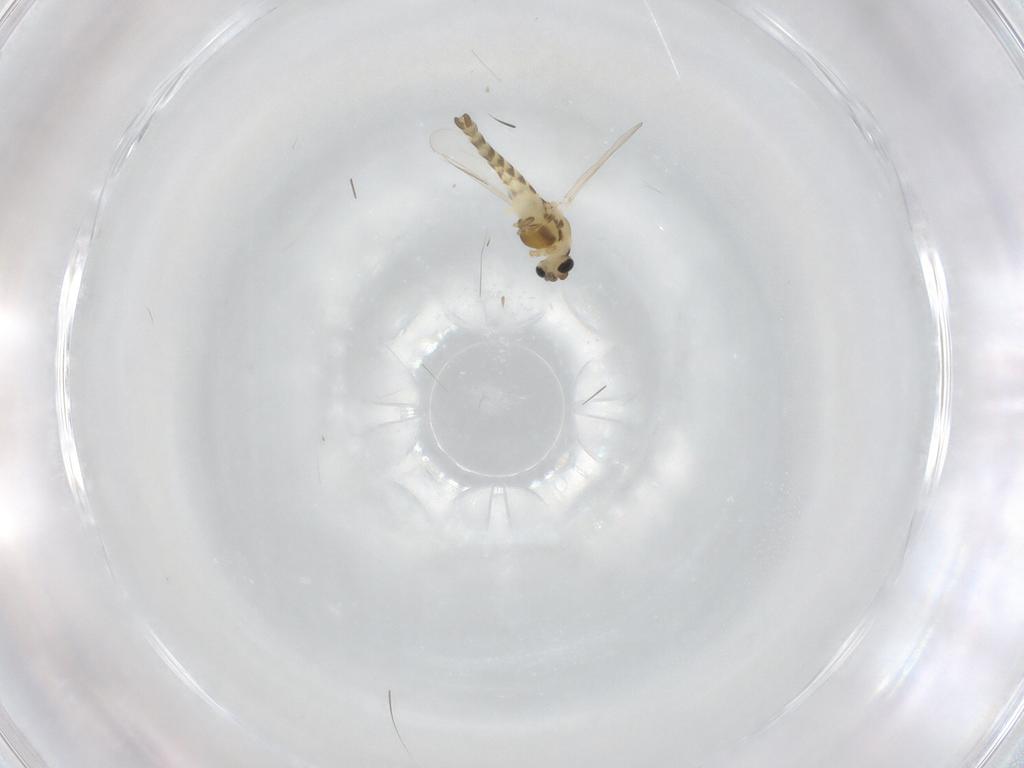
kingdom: Animalia
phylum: Arthropoda
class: Insecta
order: Diptera
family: Chironomidae
